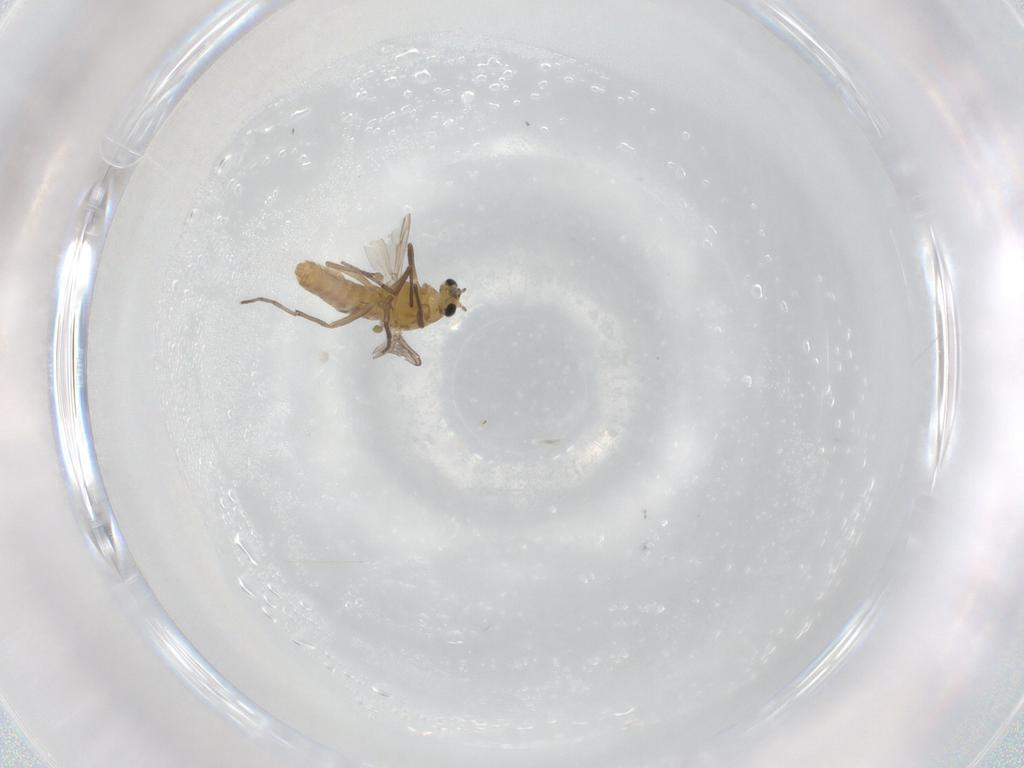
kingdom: Animalia
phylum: Arthropoda
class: Insecta
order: Diptera
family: Chironomidae
